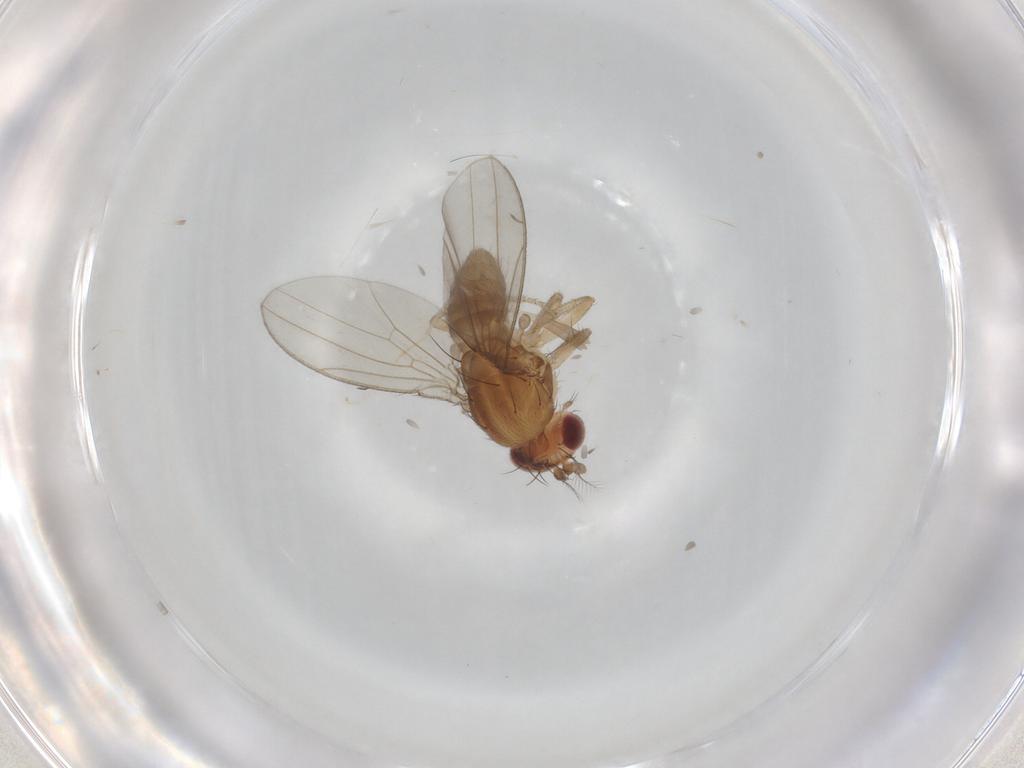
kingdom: Animalia
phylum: Arthropoda
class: Insecta
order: Diptera
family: Drosophilidae
